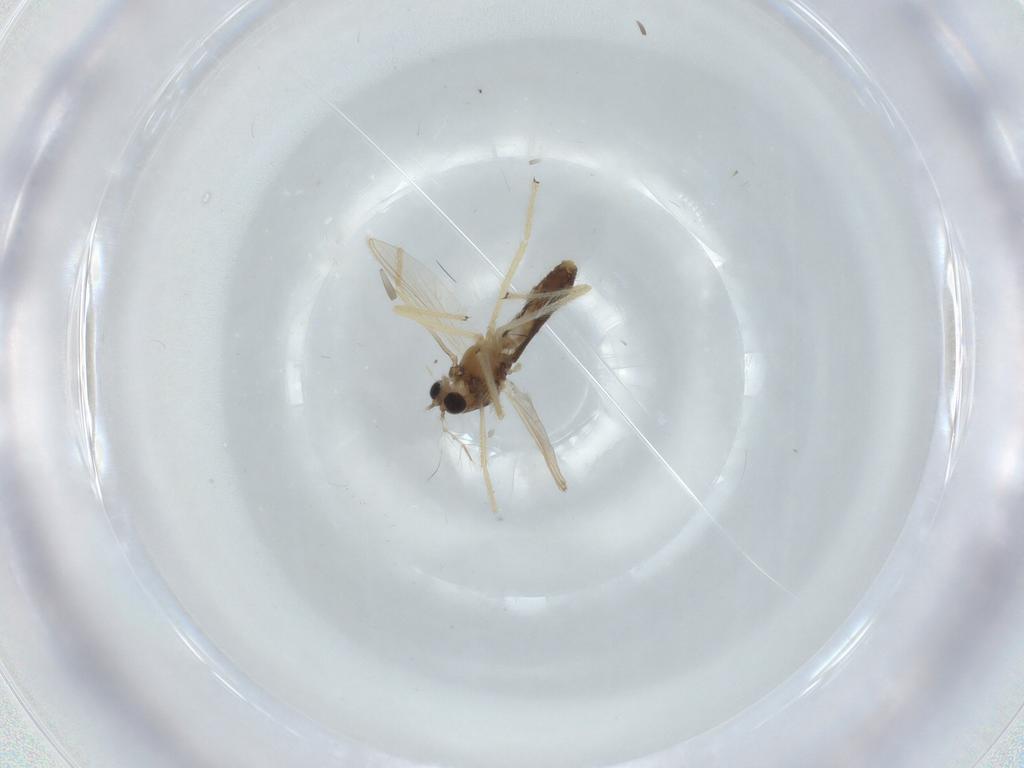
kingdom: Animalia
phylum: Arthropoda
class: Insecta
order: Diptera
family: Chironomidae
